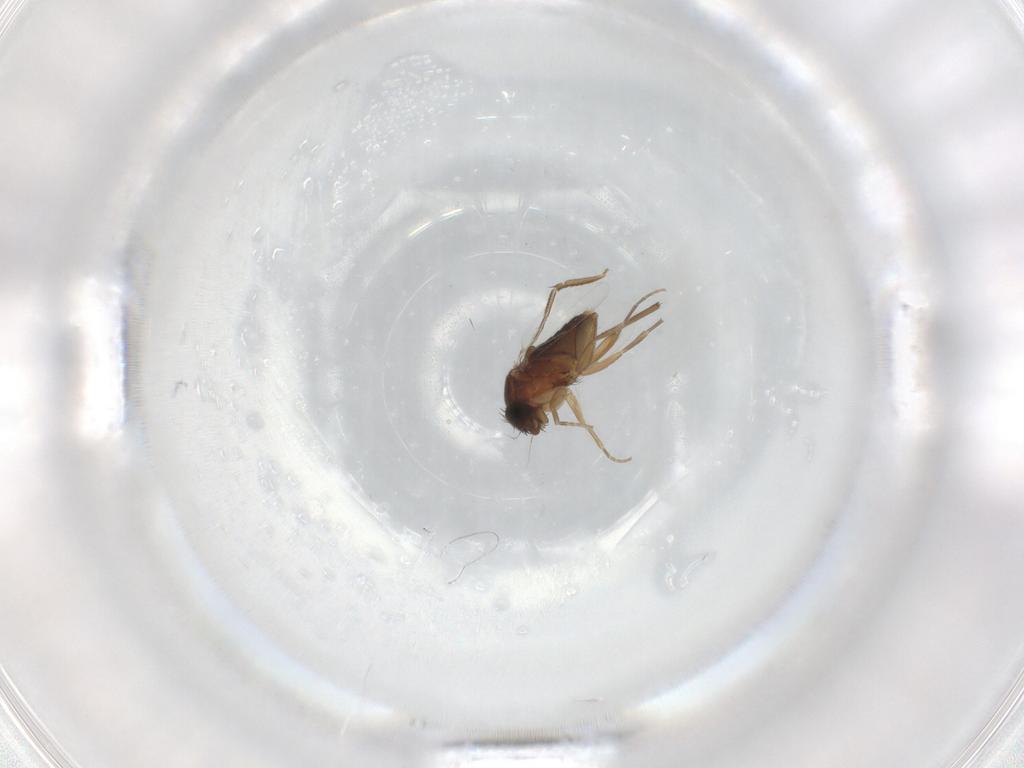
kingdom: Animalia
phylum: Arthropoda
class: Insecta
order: Diptera
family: Phoridae
